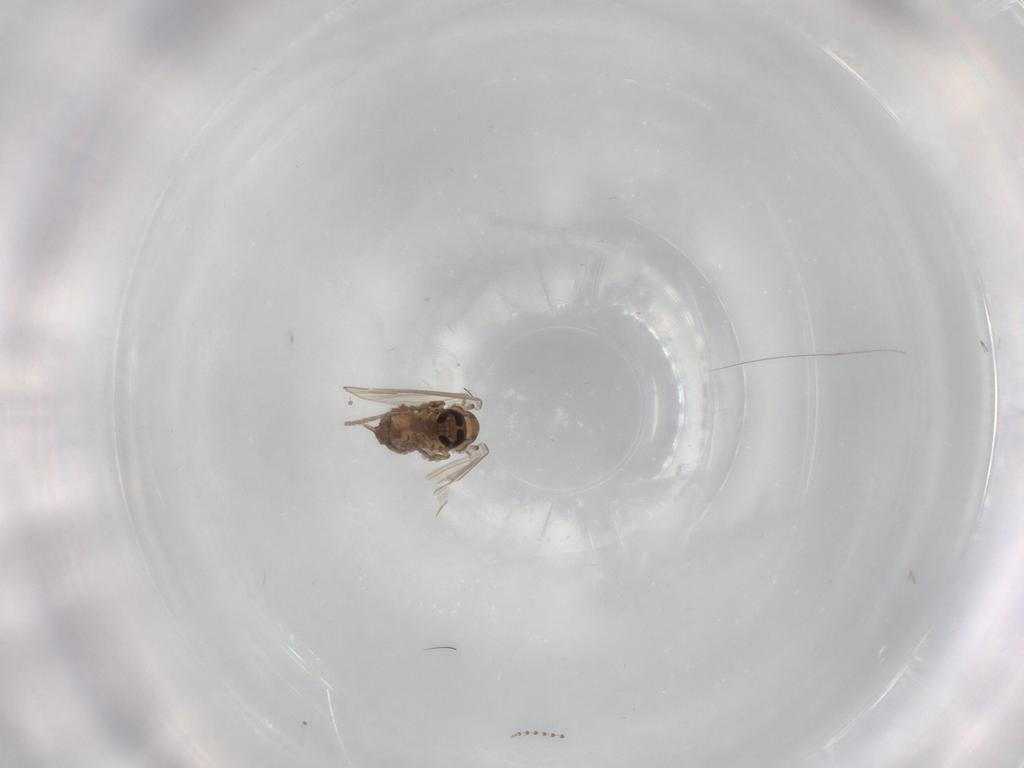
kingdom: Animalia
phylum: Arthropoda
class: Insecta
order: Diptera
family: Psychodidae
